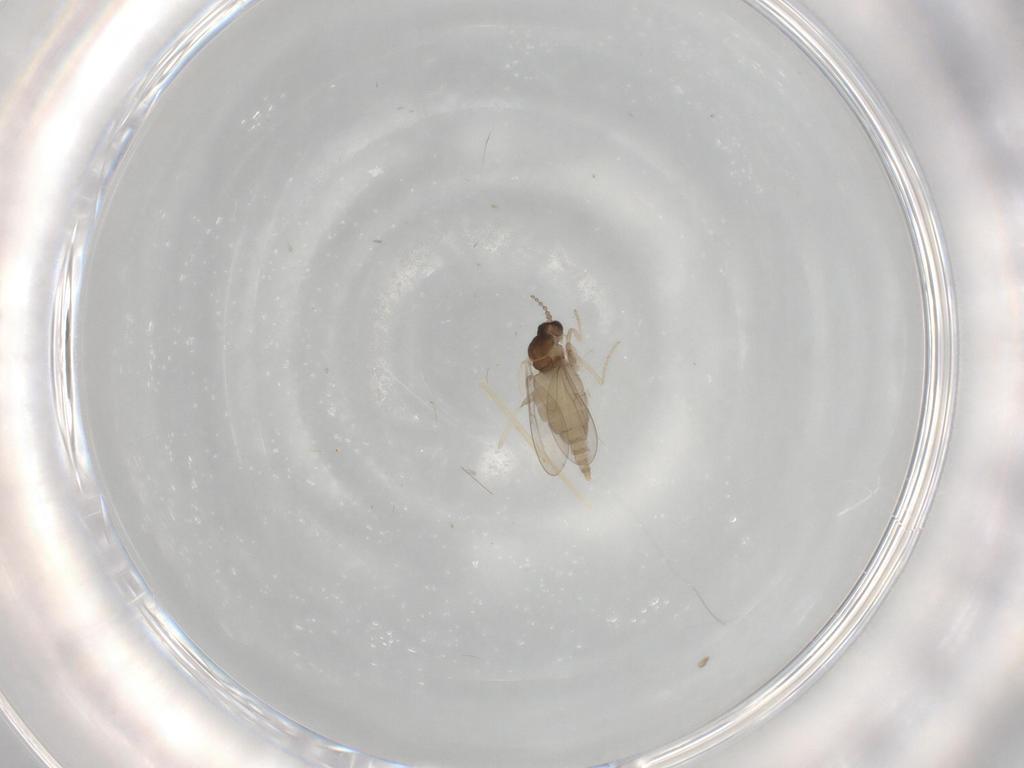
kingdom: Animalia
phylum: Arthropoda
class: Insecta
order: Diptera
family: Cecidomyiidae
